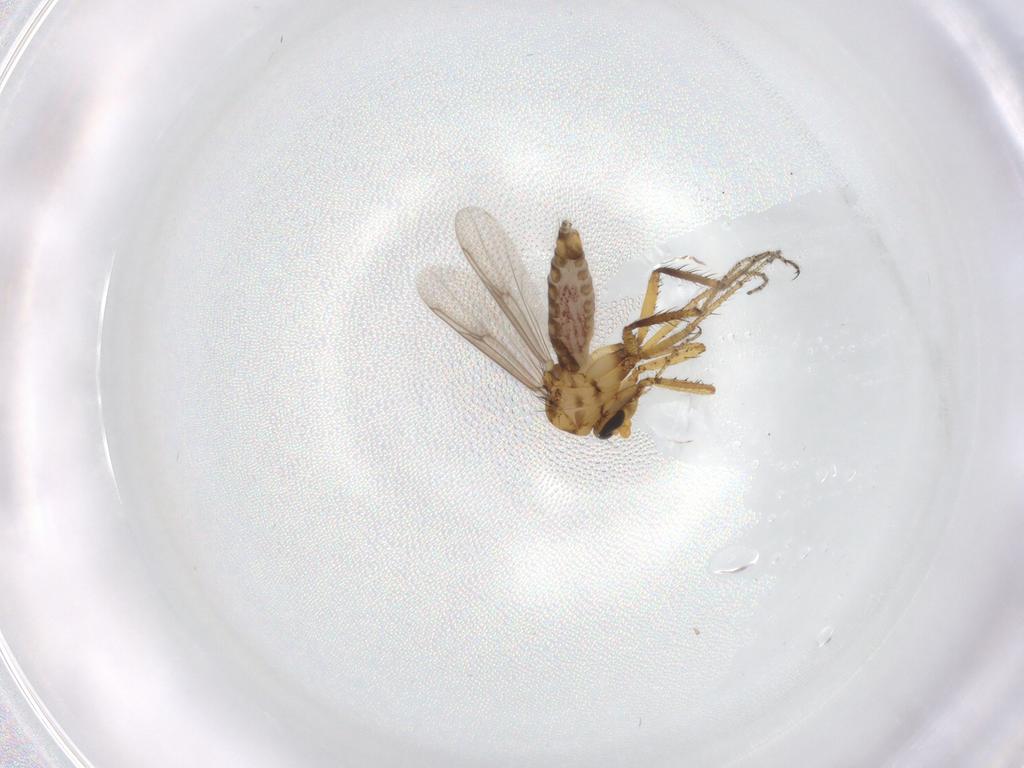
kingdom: Animalia
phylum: Arthropoda
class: Insecta
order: Diptera
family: Ceratopogonidae
